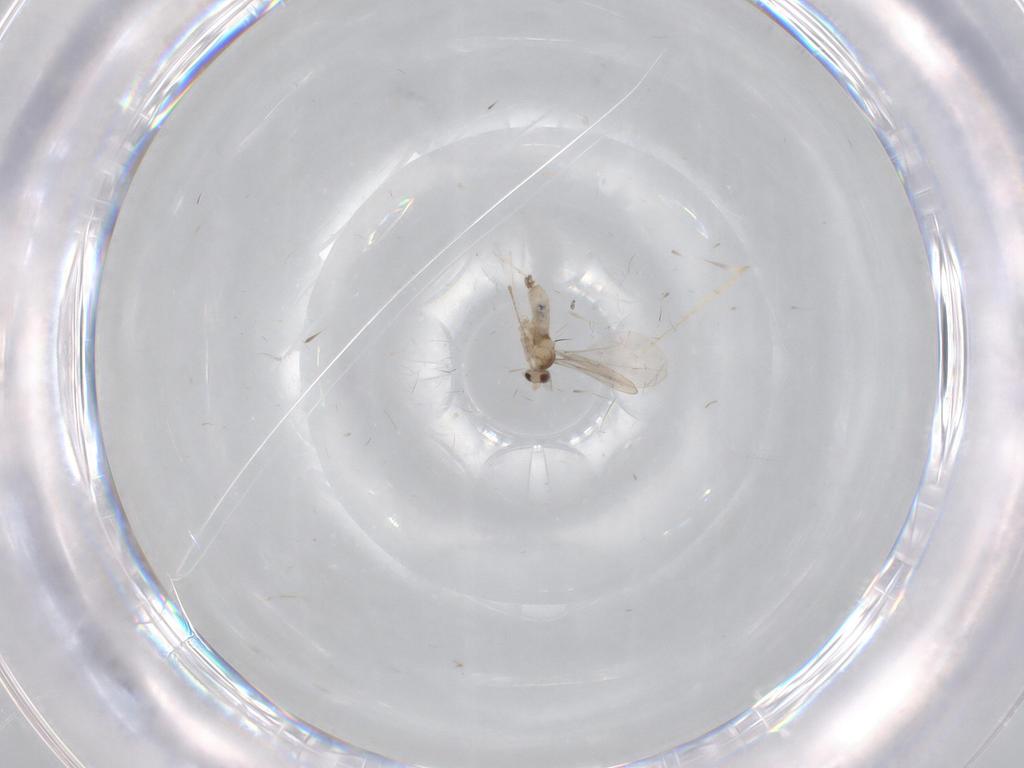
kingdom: Animalia
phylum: Arthropoda
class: Insecta
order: Diptera
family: Cecidomyiidae
